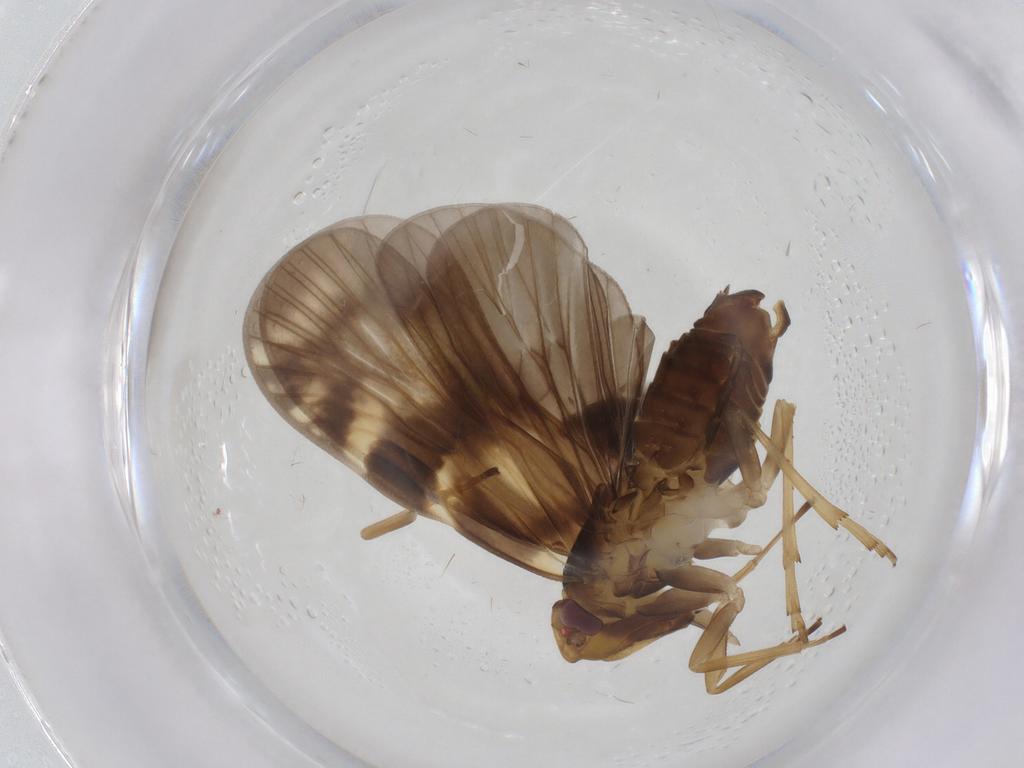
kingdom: Animalia
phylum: Arthropoda
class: Insecta
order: Hemiptera
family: Cicadellidae
